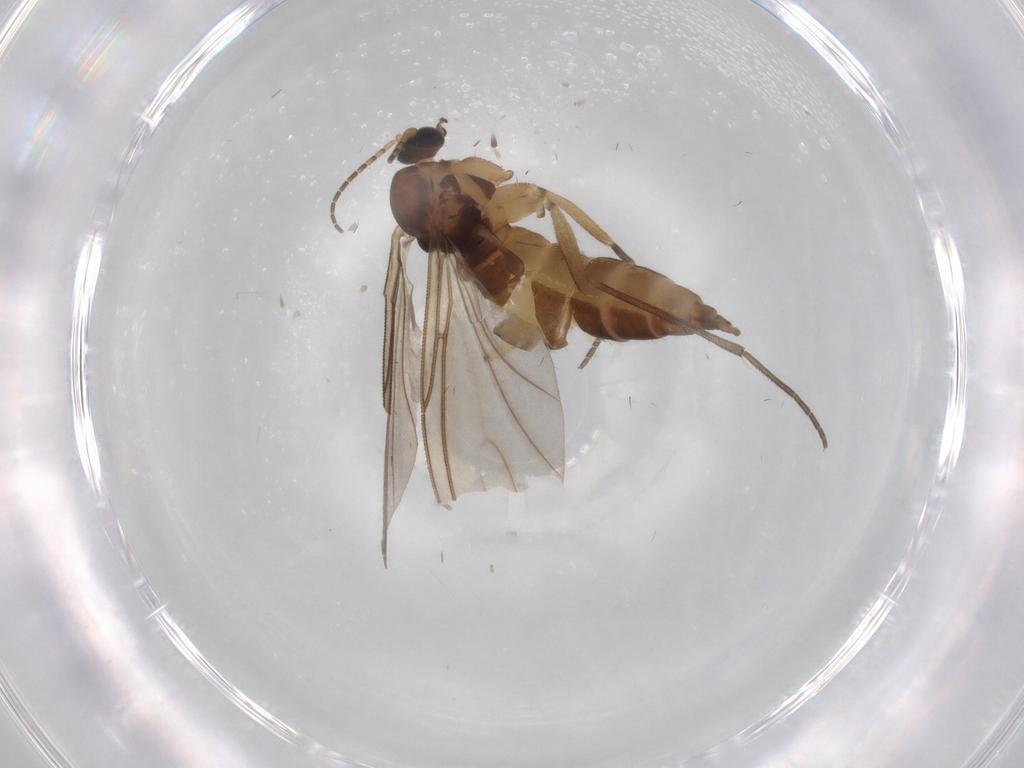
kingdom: Animalia
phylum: Arthropoda
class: Insecta
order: Diptera
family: Sciaridae
